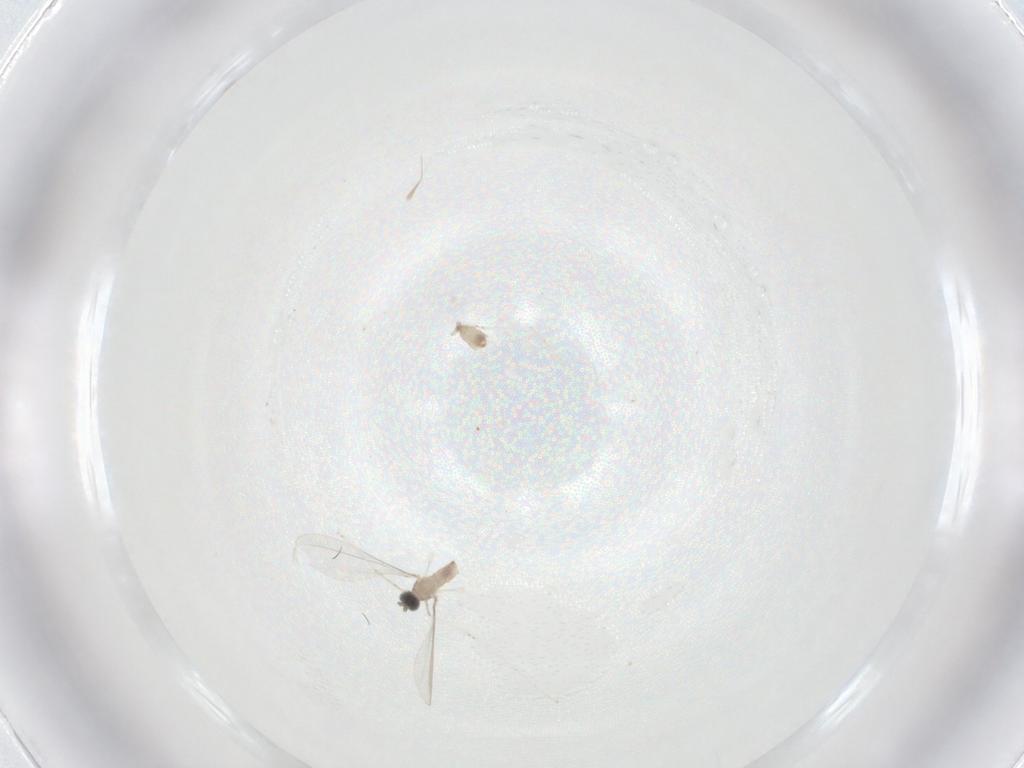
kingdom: Animalia
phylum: Arthropoda
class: Insecta
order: Diptera
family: Cecidomyiidae
